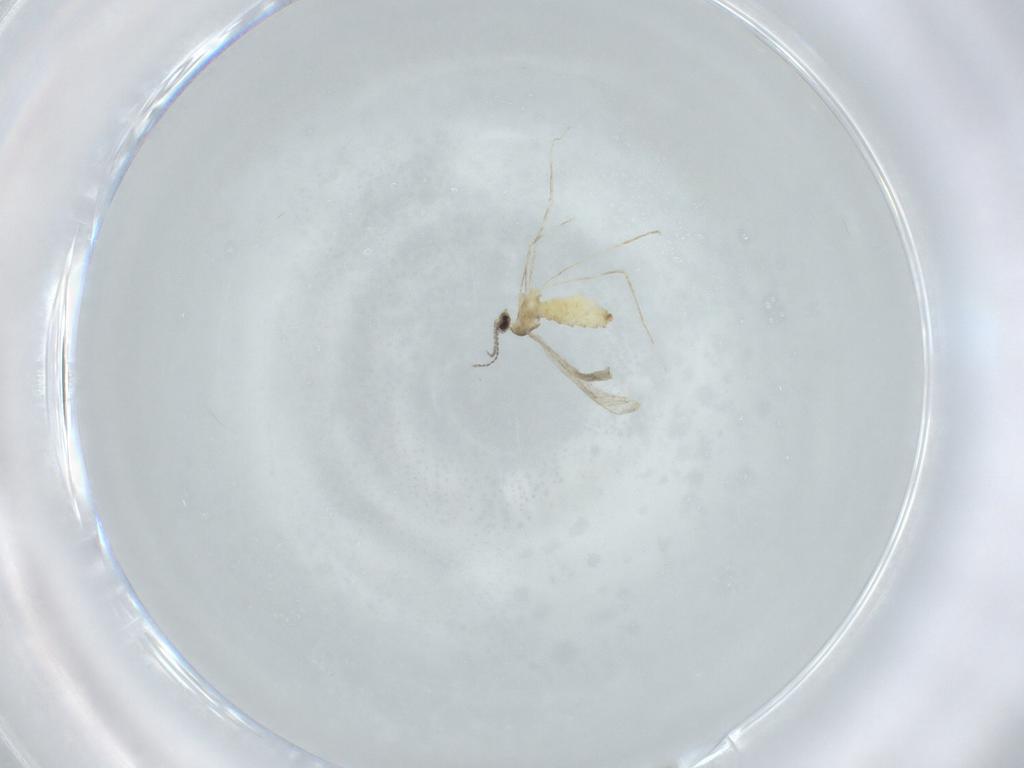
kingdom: Animalia
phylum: Arthropoda
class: Insecta
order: Diptera
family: Cecidomyiidae
